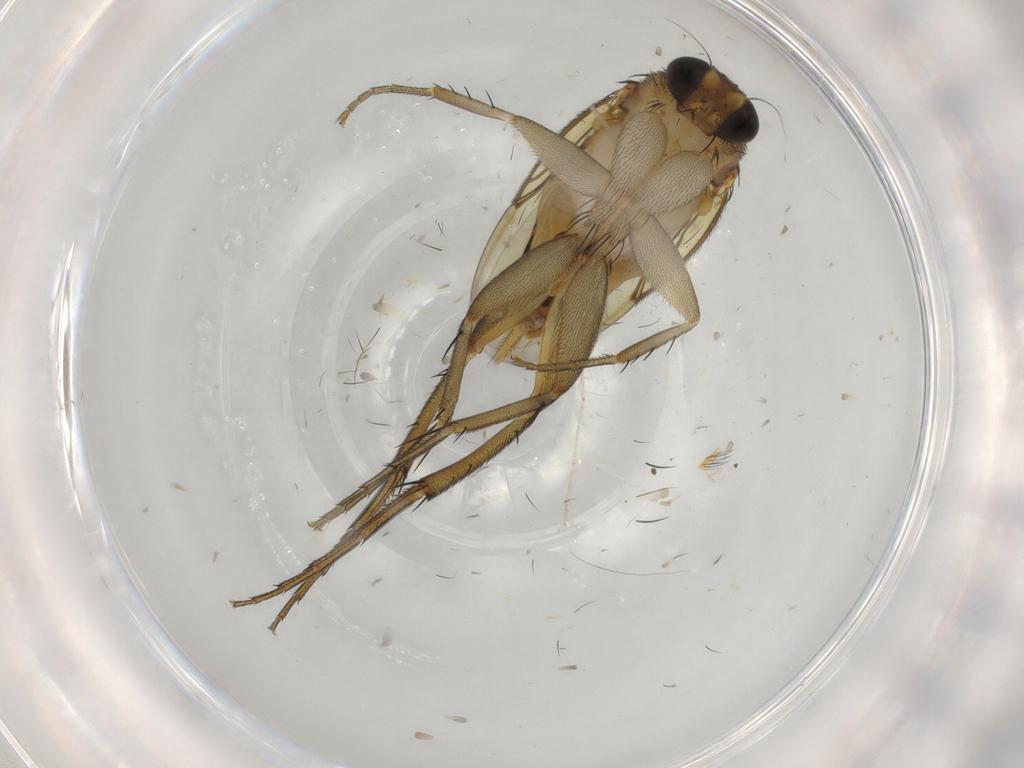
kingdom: Animalia
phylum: Arthropoda
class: Insecta
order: Diptera
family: Phoridae
